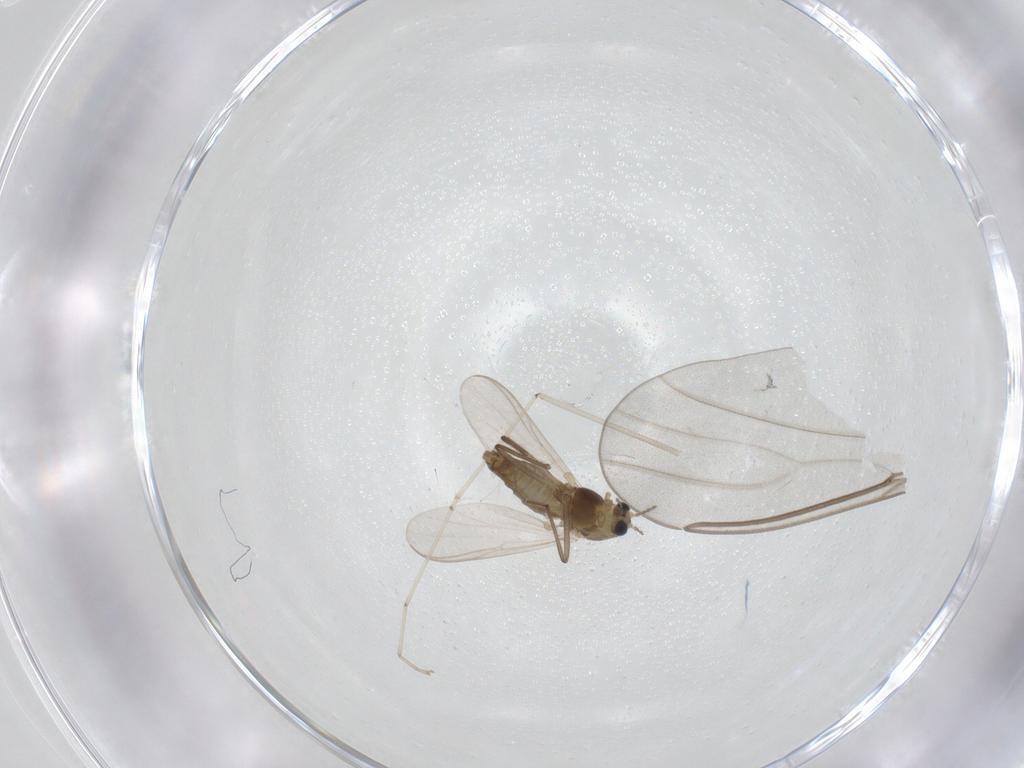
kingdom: Animalia
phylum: Arthropoda
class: Insecta
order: Diptera
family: Chironomidae
